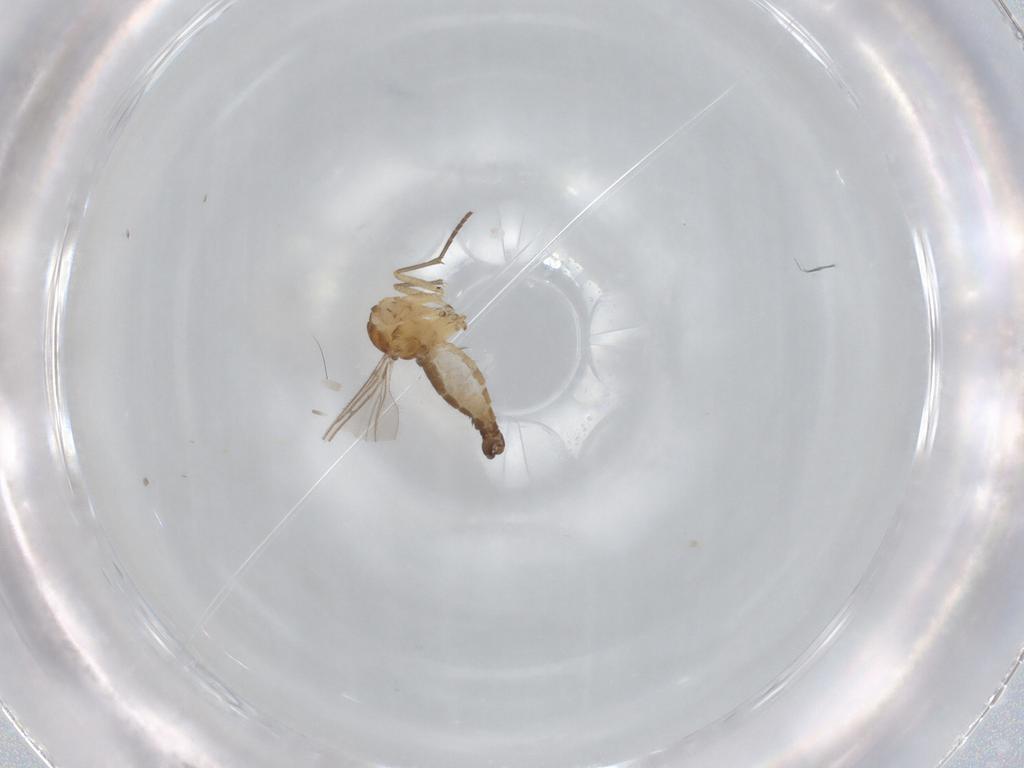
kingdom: Animalia
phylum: Arthropoda
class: Insecta
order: Diptera
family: Sciaridae
